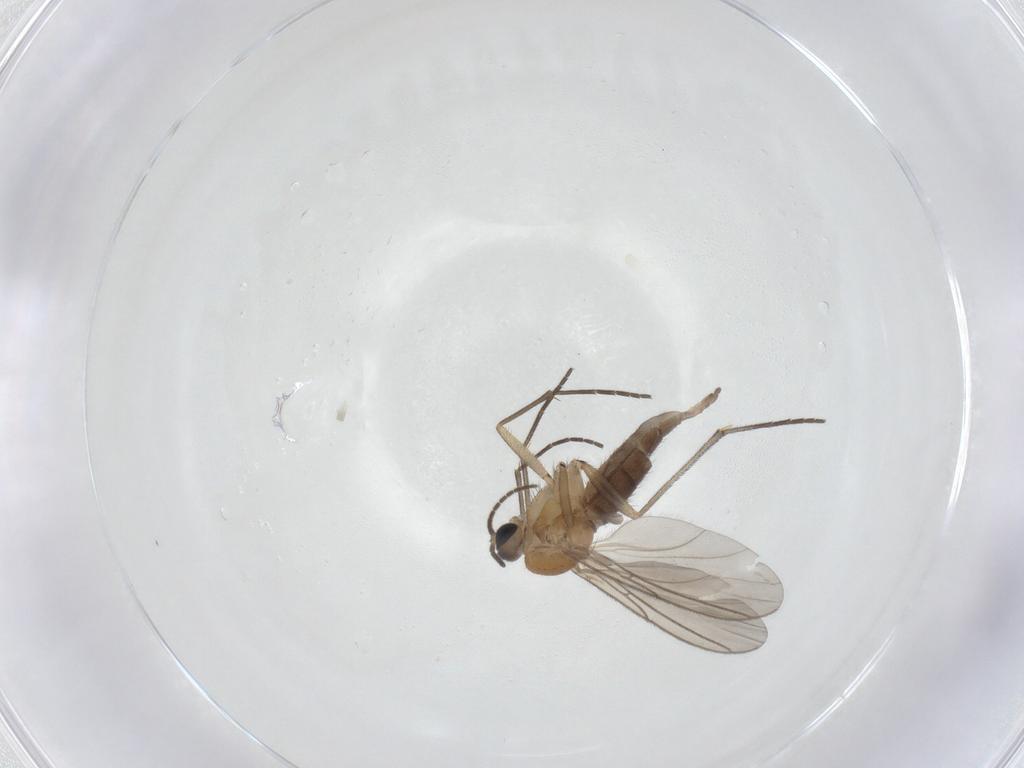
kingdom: Animalia
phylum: Arthropoda
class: Insecta
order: Diptera
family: Sciaridae
